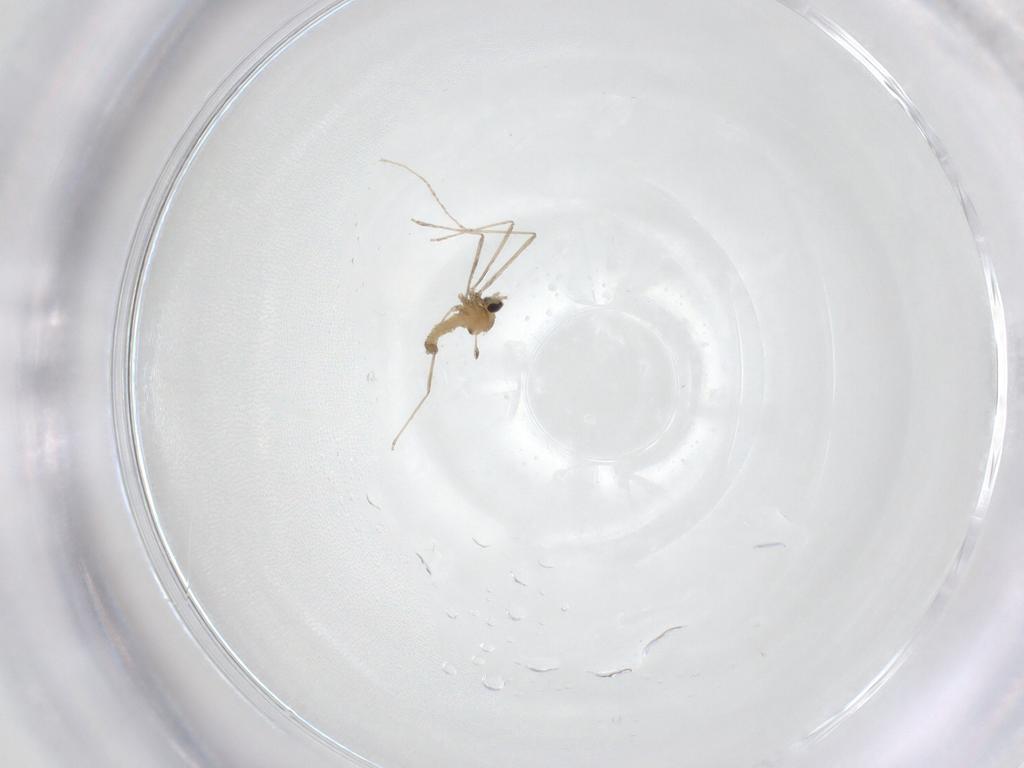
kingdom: Animalia
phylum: Arthropoda
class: Insecta
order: Diptera
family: Cecidomyiidae
